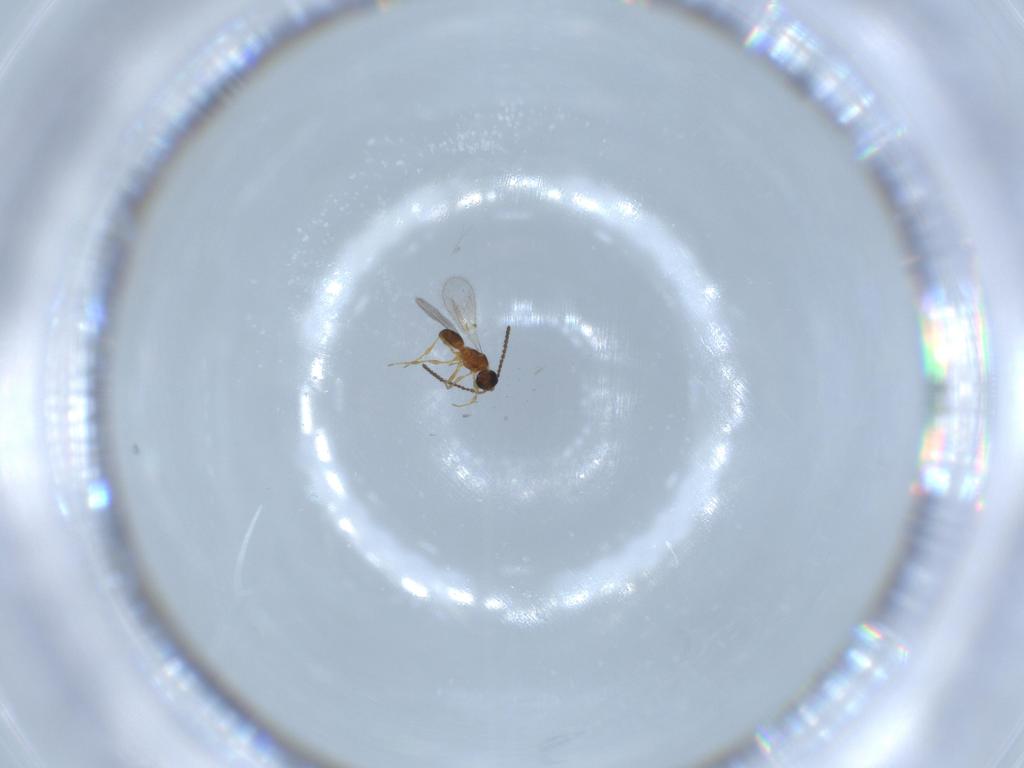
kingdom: Animalia
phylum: Arthropoda
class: Insecta
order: Hymenoptera
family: Diapriidae
